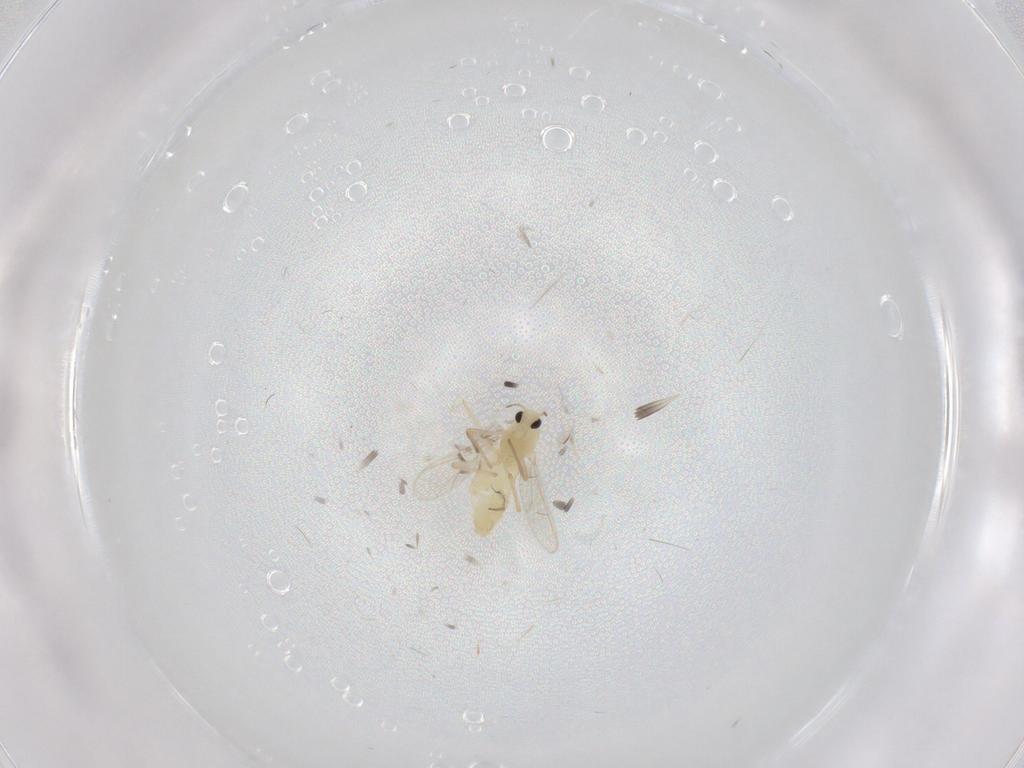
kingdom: Animalia
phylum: Arthropoda
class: Insecta
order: Diptera
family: Chironomidae
